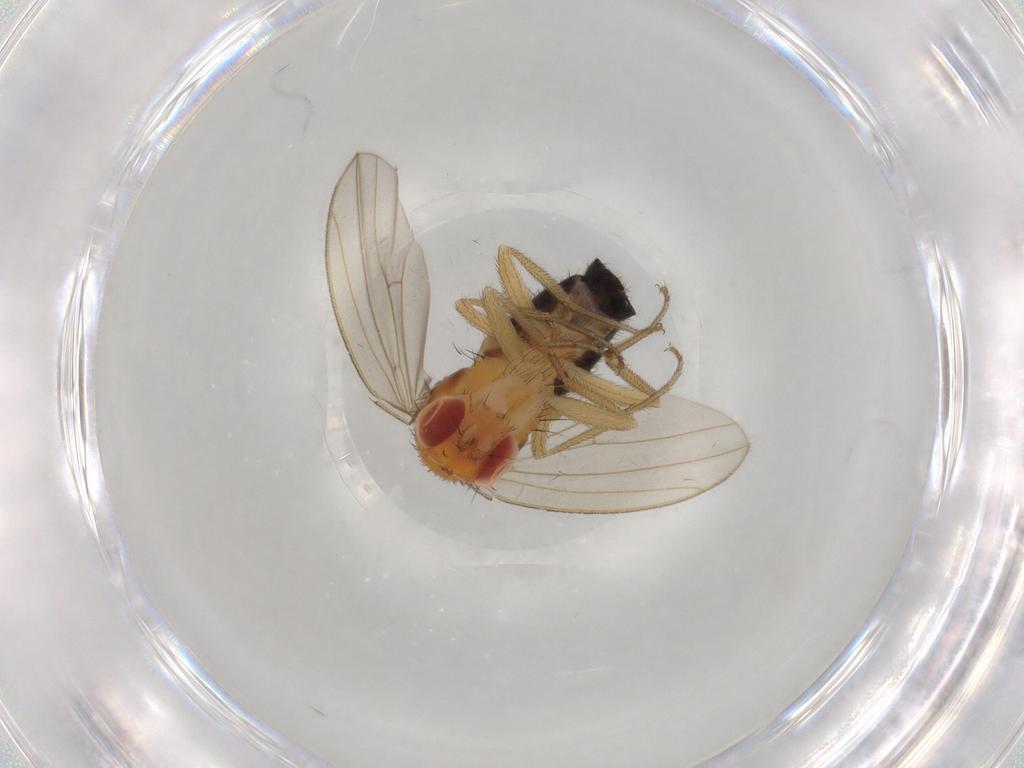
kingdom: Animalia
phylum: Arthropoda
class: Insecta
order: Diptera
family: Drosophilidae
